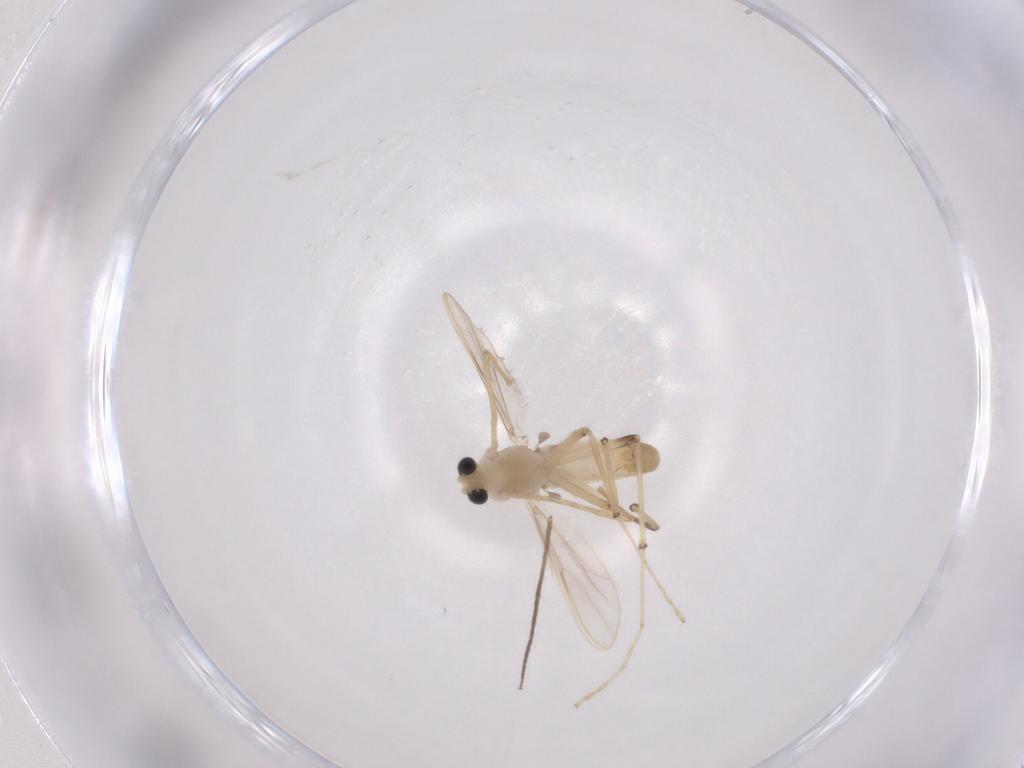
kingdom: Animalia
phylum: Arthropoda
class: Insecta
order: Diptera
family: Chironomidae
